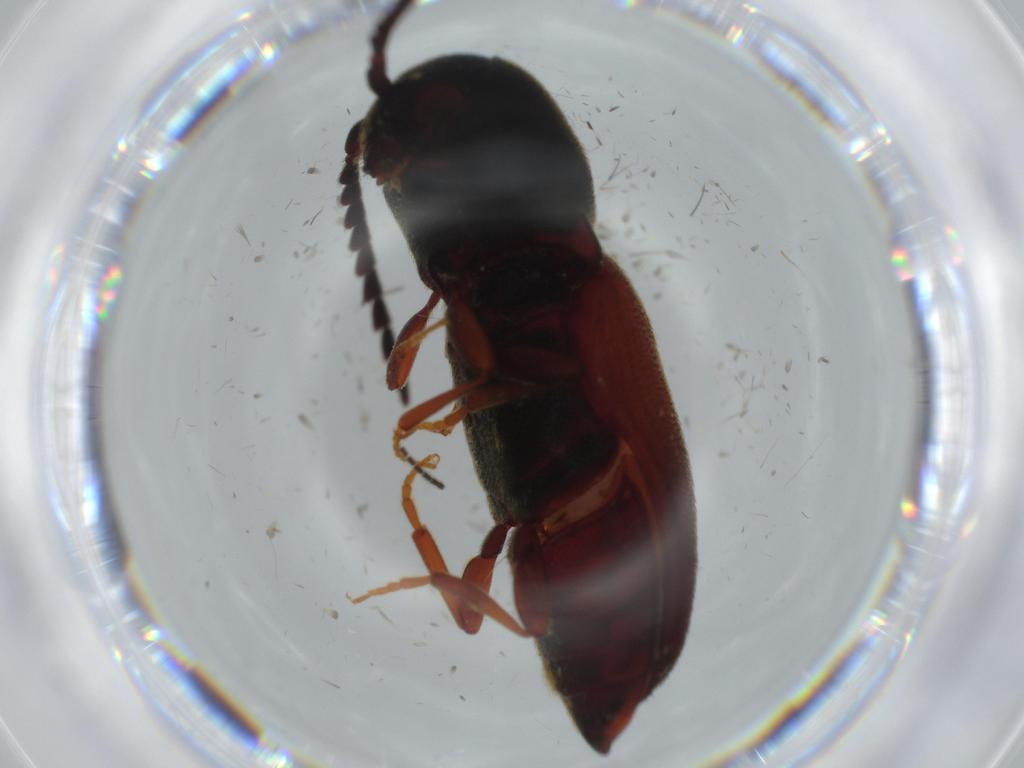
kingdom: Animalia
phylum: Arthropoda
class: Insecta
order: Coleoptera
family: Eucnemidae
